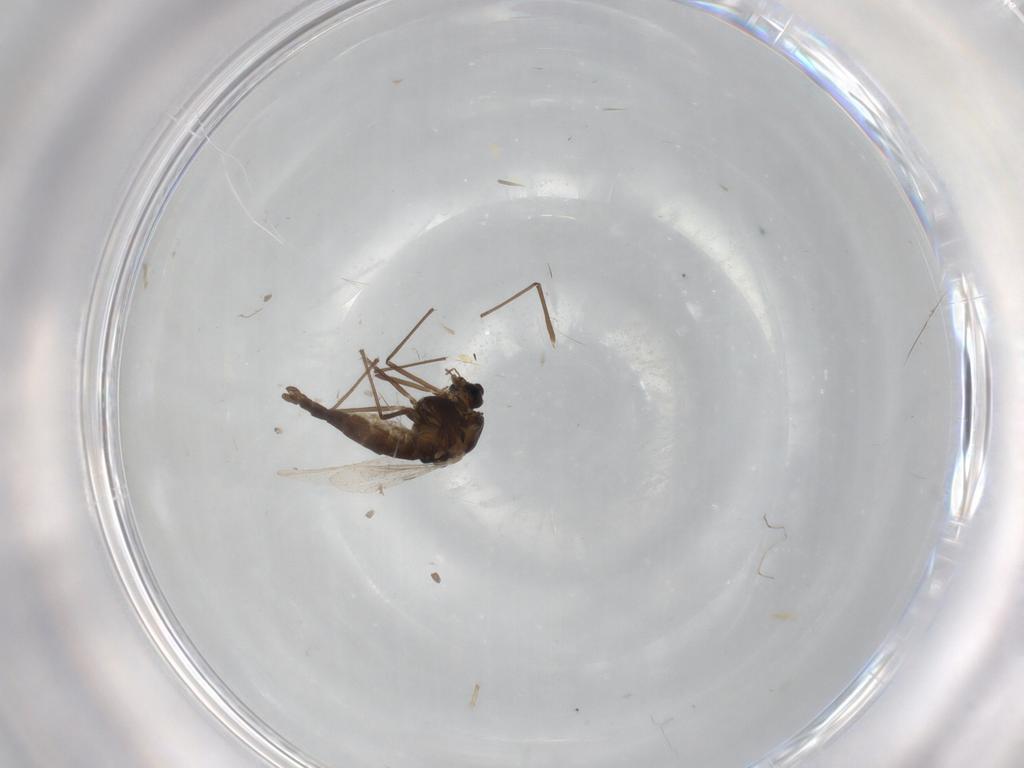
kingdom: Animalia
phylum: Arthropoda
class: Insecta
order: Diptera
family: Chironomidae
